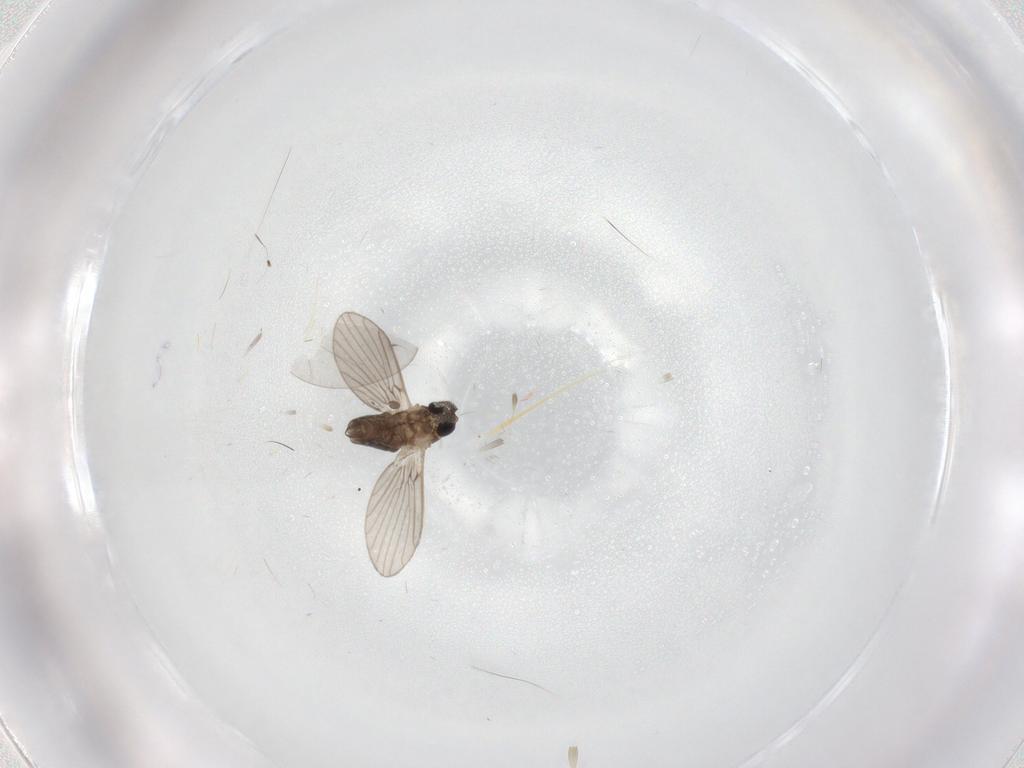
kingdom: Animalia
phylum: Arthropoda
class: Insecta
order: Diptera
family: Cecidomyiidae
